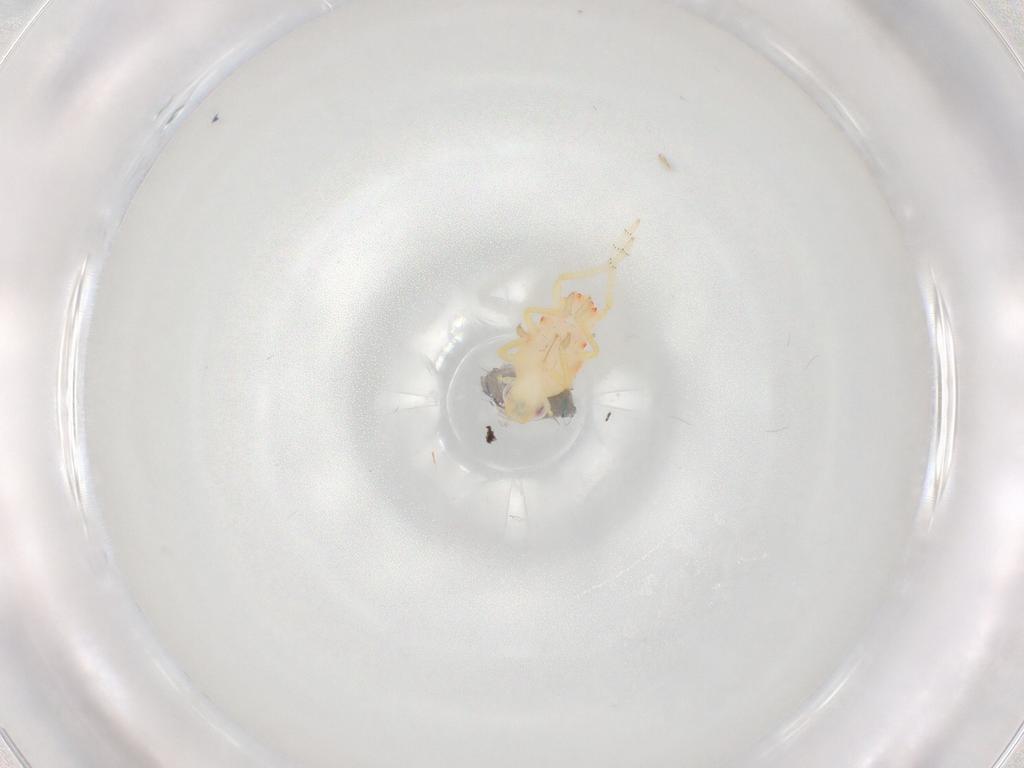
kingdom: Animalia
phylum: Arthropoda
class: Insecta
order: Hemiptera
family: Tropiduchidae
